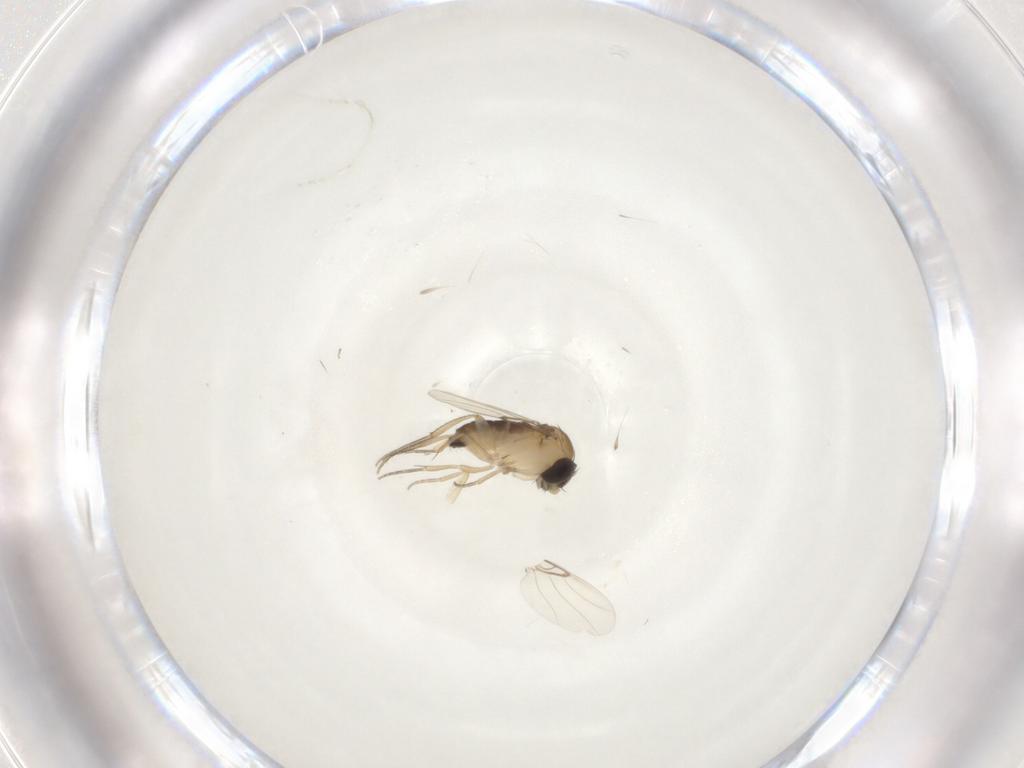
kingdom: Animalia
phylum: Arthropoda
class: Insecta
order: Diptera
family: Phoridae
